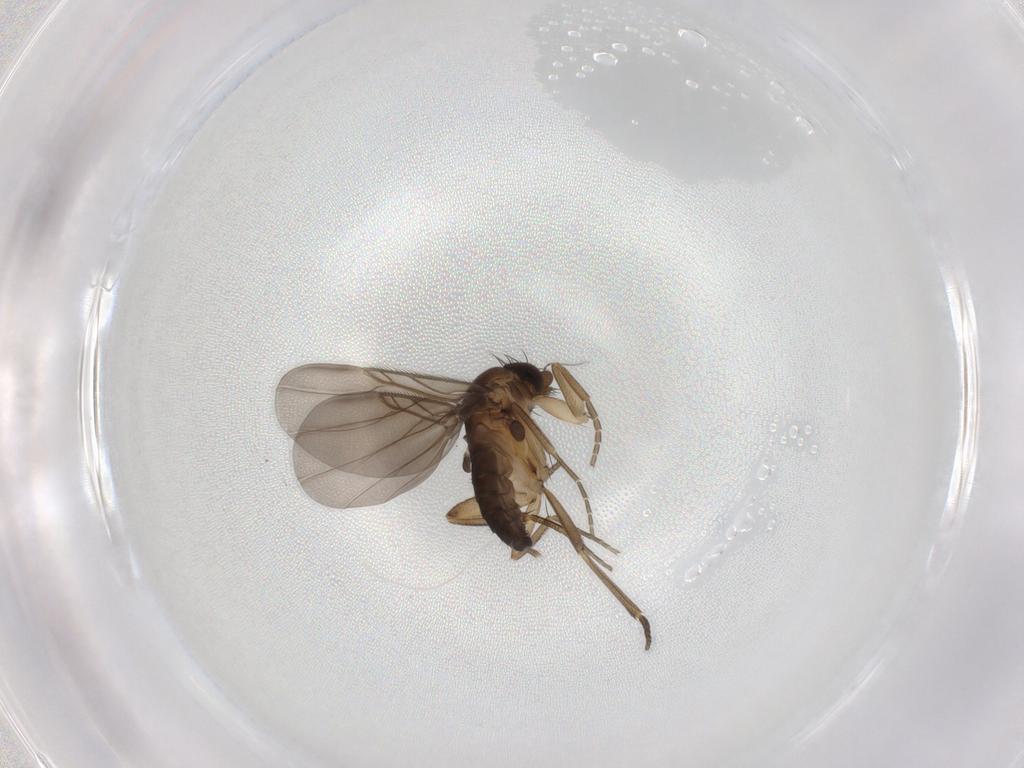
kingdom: Animalia
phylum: Arthropoda
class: Insecta
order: Diptera
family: Phoridae
